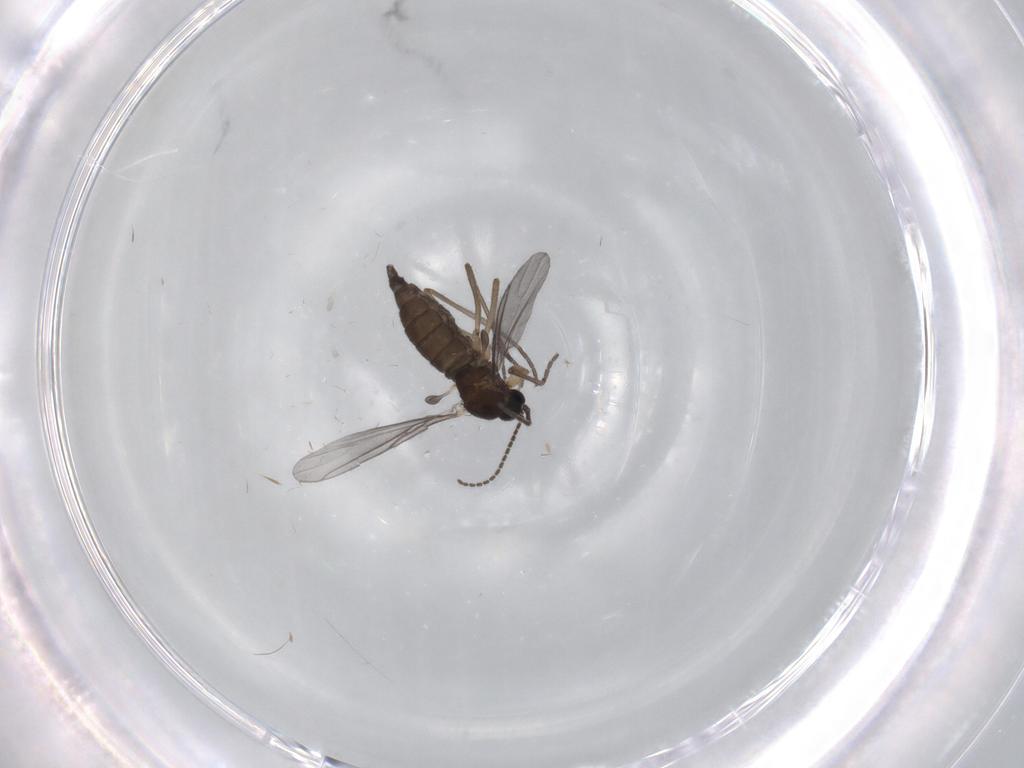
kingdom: Animalia
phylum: Arthropoda
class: Insecta
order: Diptera
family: Sciaridae
